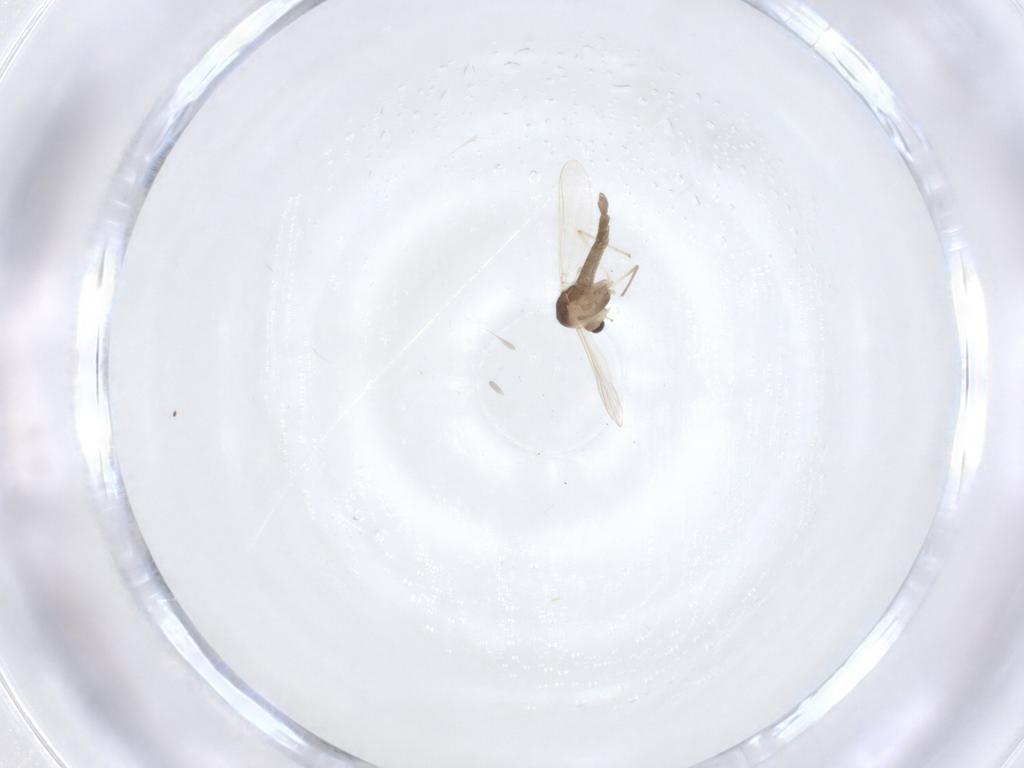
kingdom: Animalia
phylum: Arthropoda
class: Insecta
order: Diptera
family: Chironomidae
